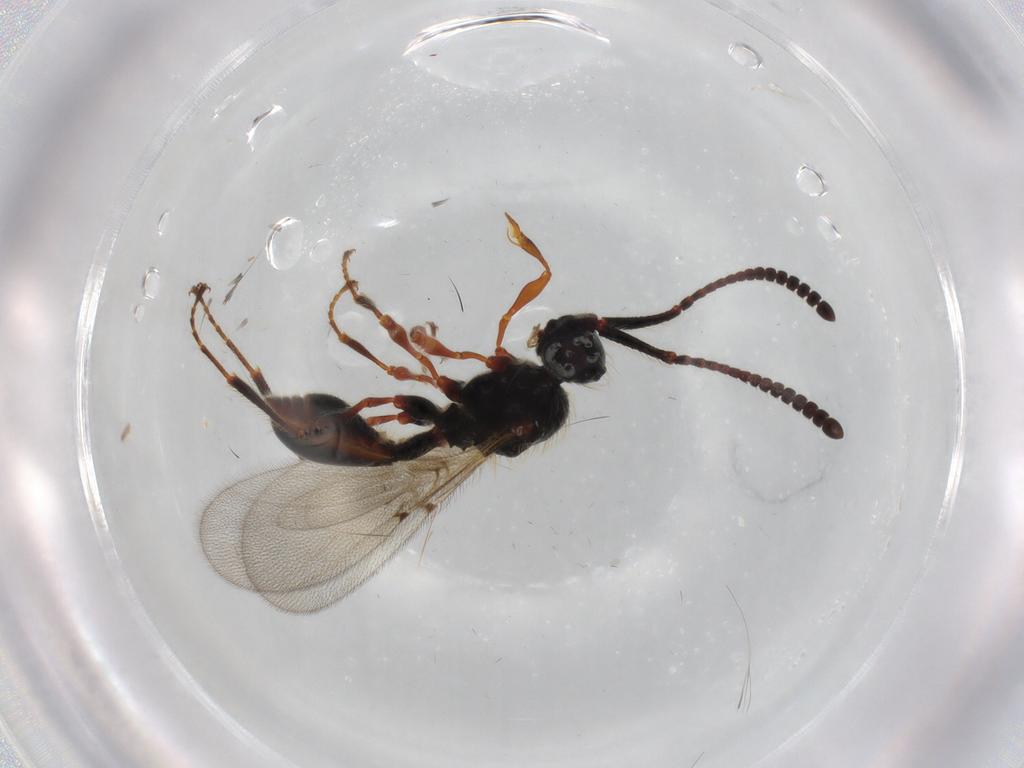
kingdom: Animalia
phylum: Arthropoda
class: Insecta
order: Hymenoptera
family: Diapriidae
